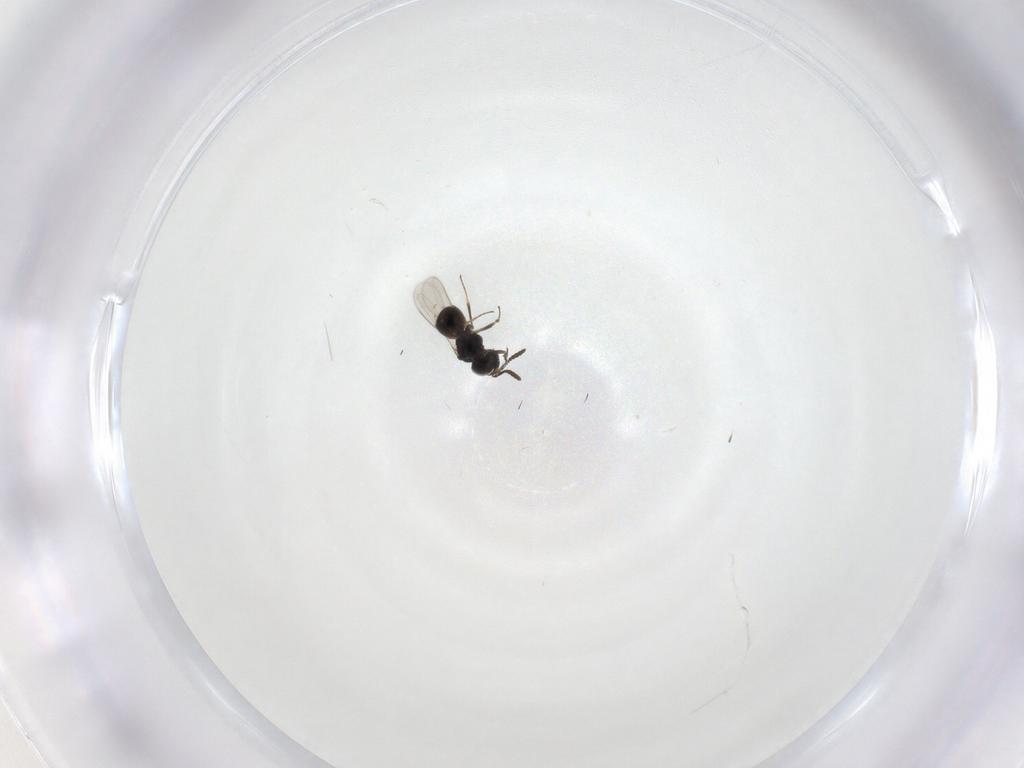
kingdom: Animalia
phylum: Arthropoda
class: Insecta
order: Hymenoptera
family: Scelionidae
